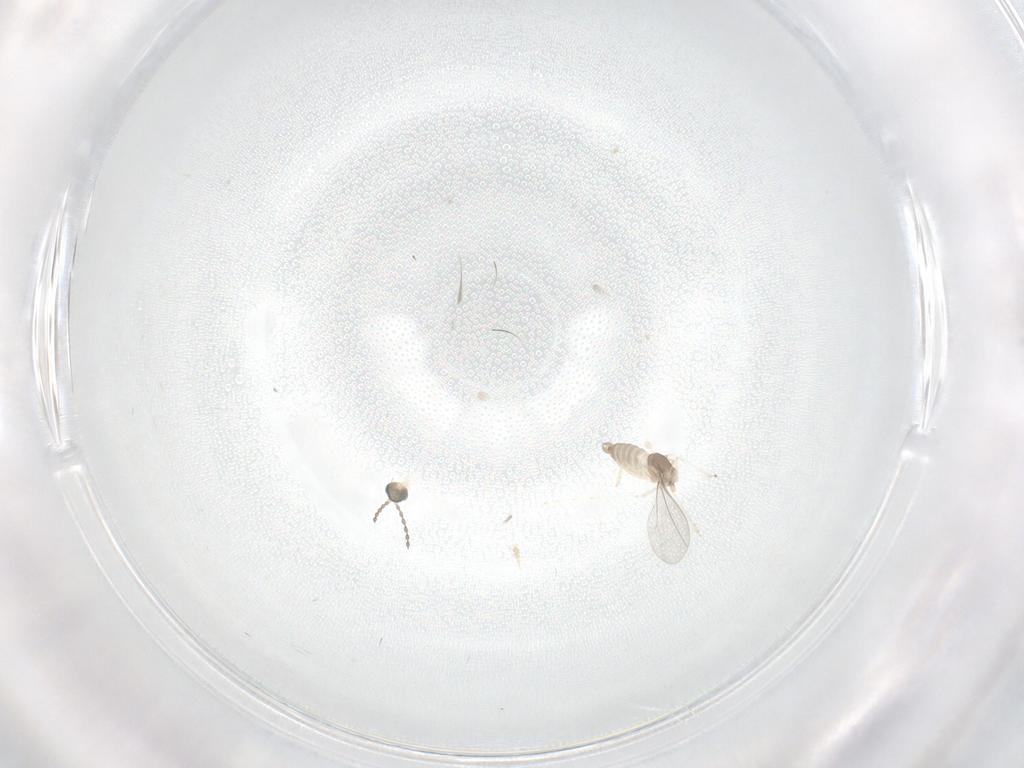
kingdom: Animalia
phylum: Arthropoda
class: Insecta
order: Diptera
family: Cecidomyiidae
